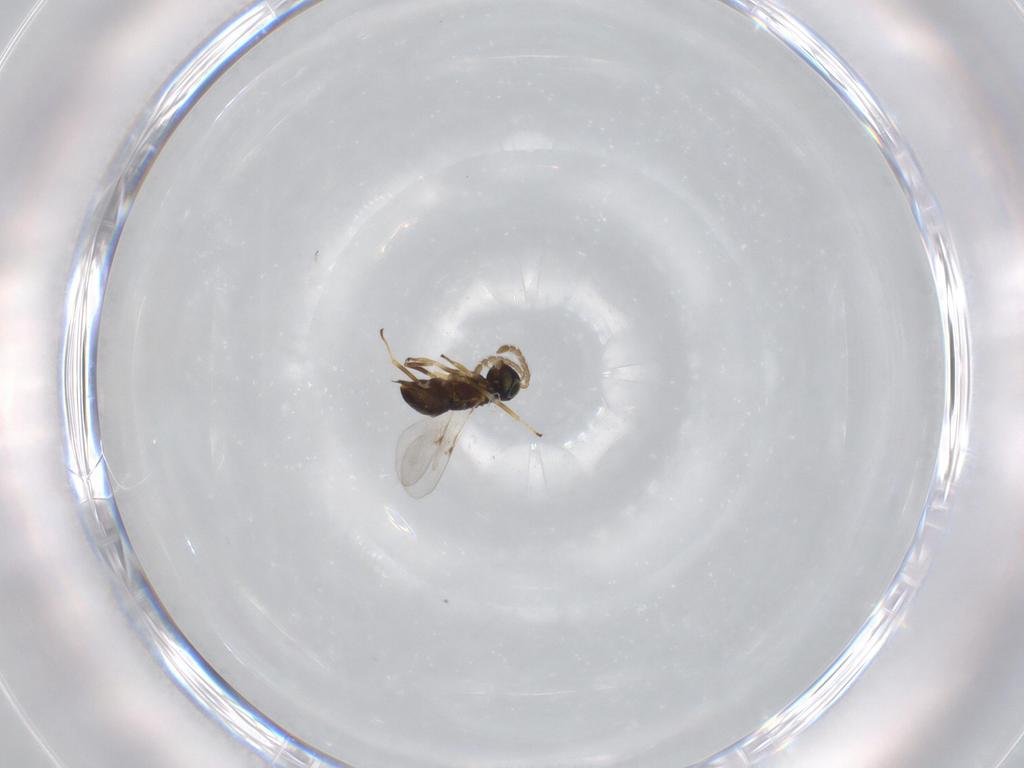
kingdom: Animalia
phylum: Arthropoda
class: Insecta
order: Hymenoptera
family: Encyrtidae
